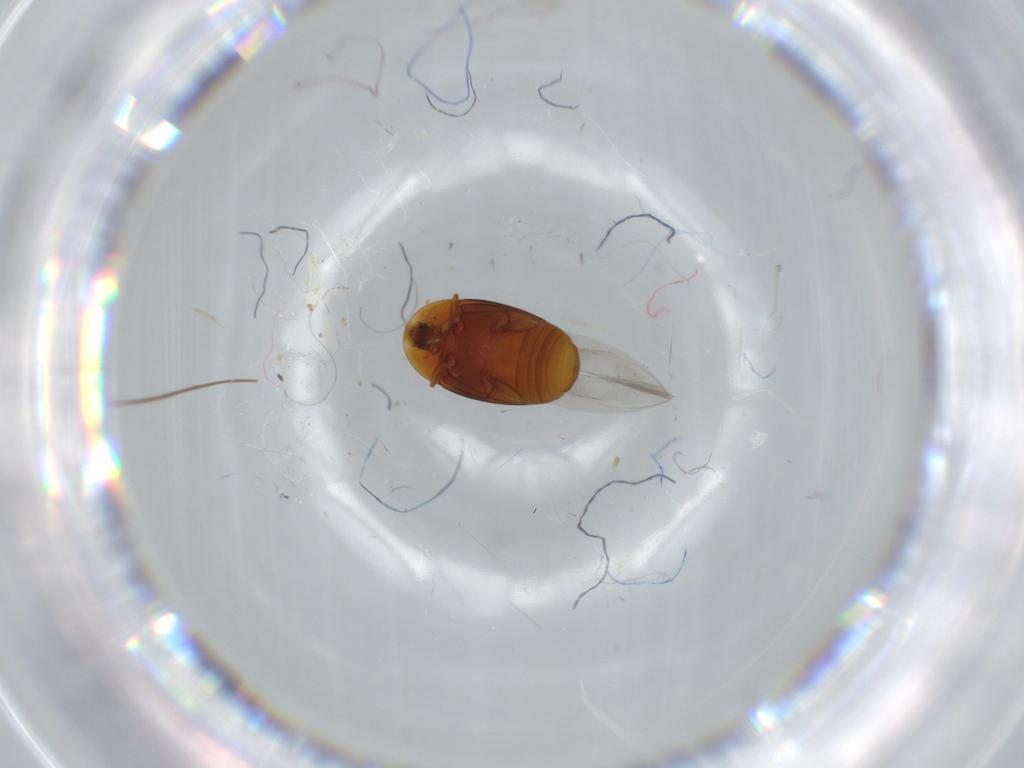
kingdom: Animalia
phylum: Arthropoda
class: Insecta
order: Coleoptera
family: Corylophidae
